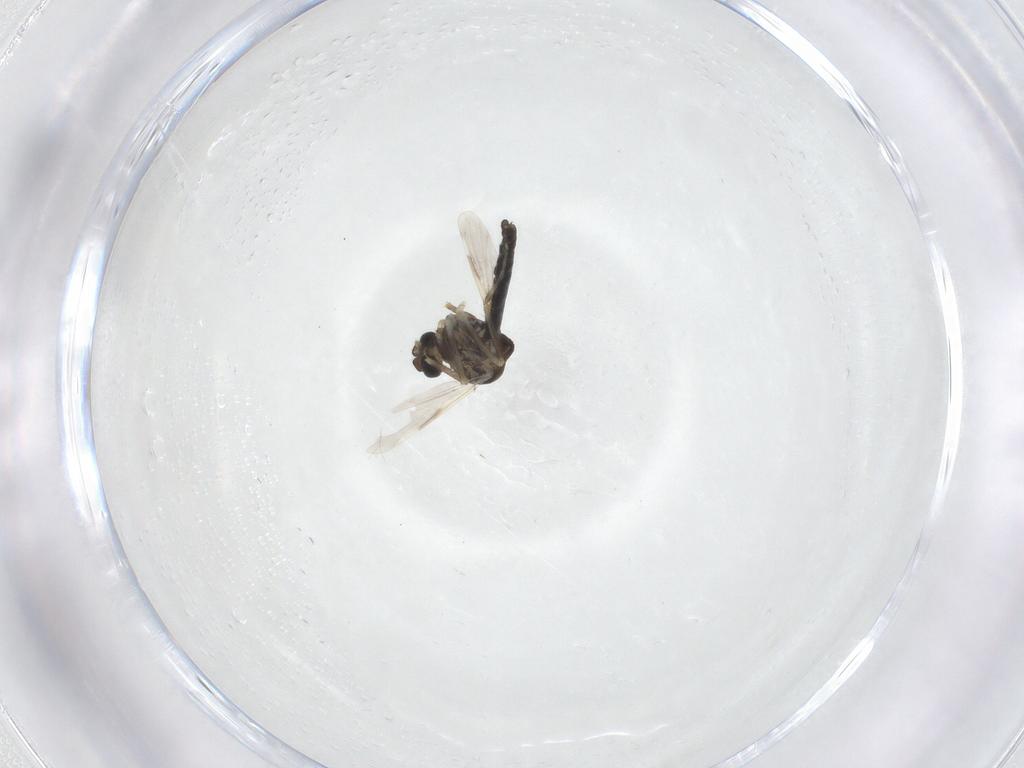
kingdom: Animalia
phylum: Arthropoda
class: Insecta
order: Diptera
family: Ceratopogonidae
